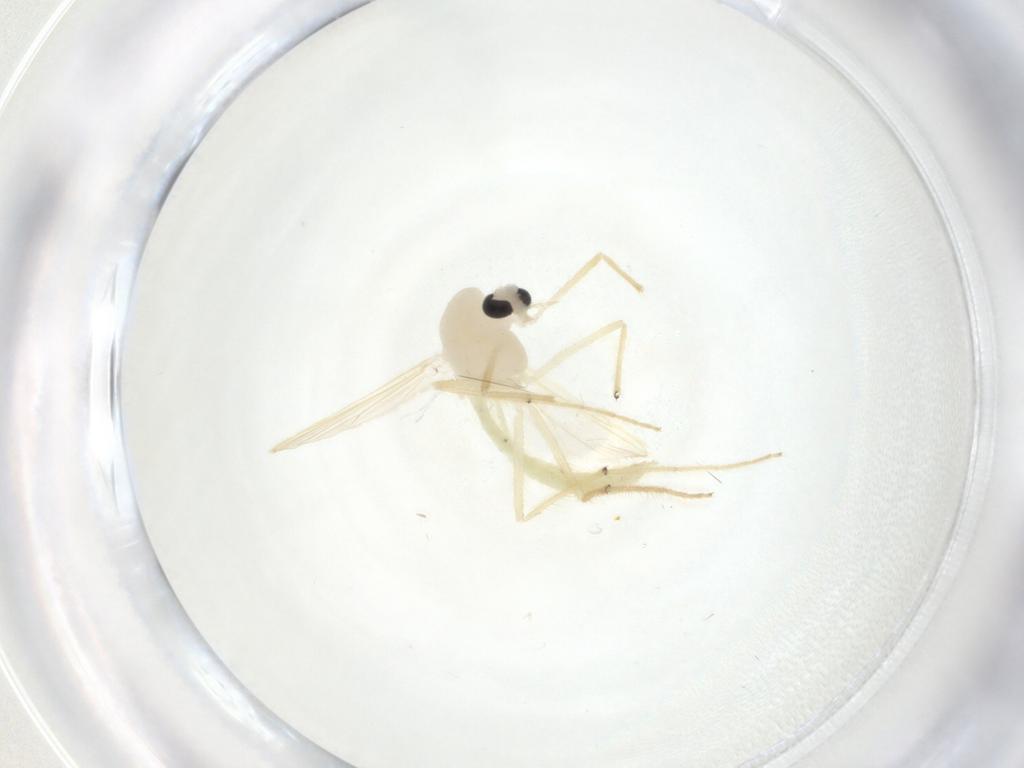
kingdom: Animalia
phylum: Arthropoda
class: Insecta
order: Diptera
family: Chironomidae
